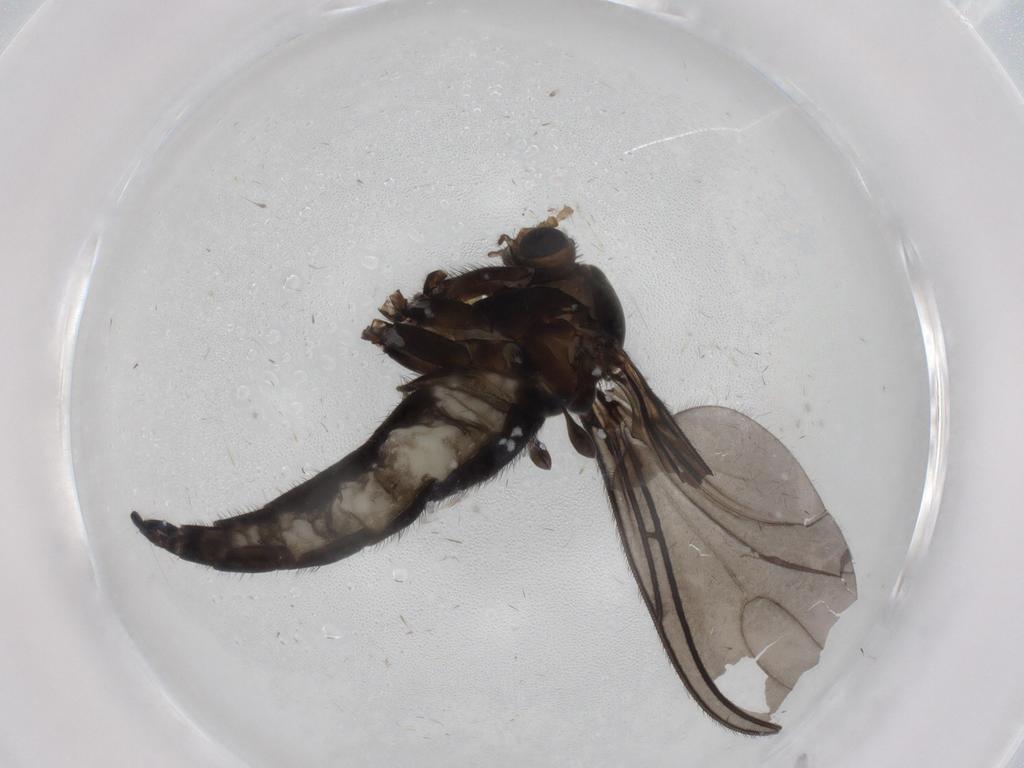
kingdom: Animalia
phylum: Arthropoda
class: Insecta
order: Diptera
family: Sciaridae
